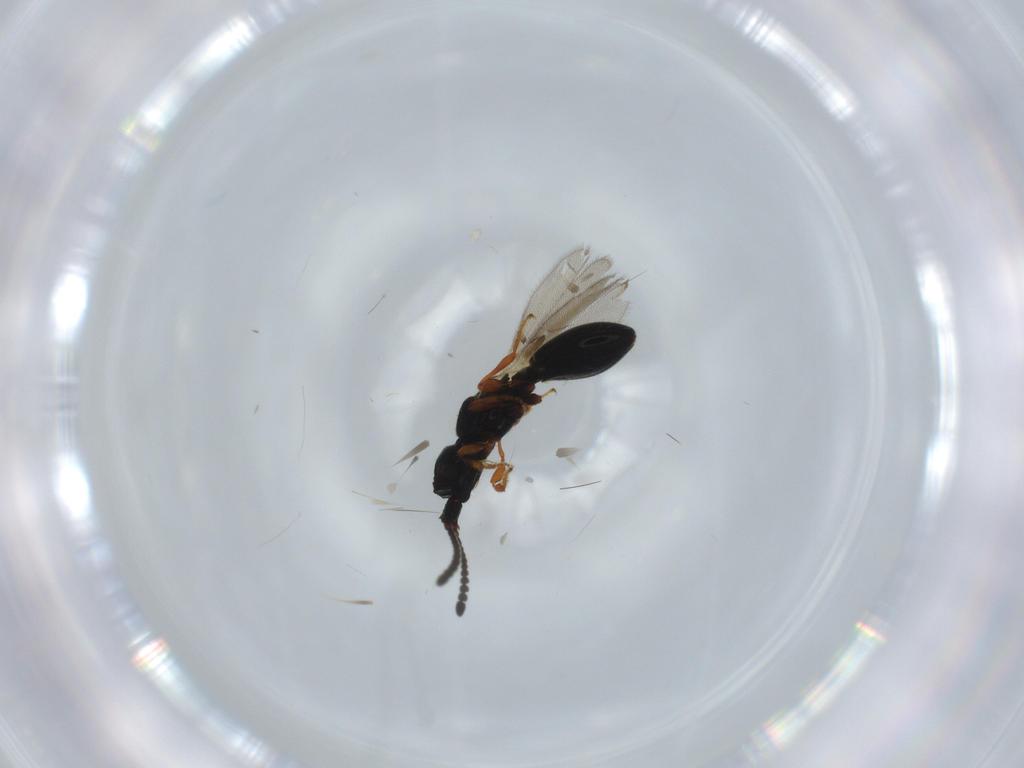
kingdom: Animalia
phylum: Arthropoda
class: Insecta
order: Hymenoptera
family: Diapriidae
